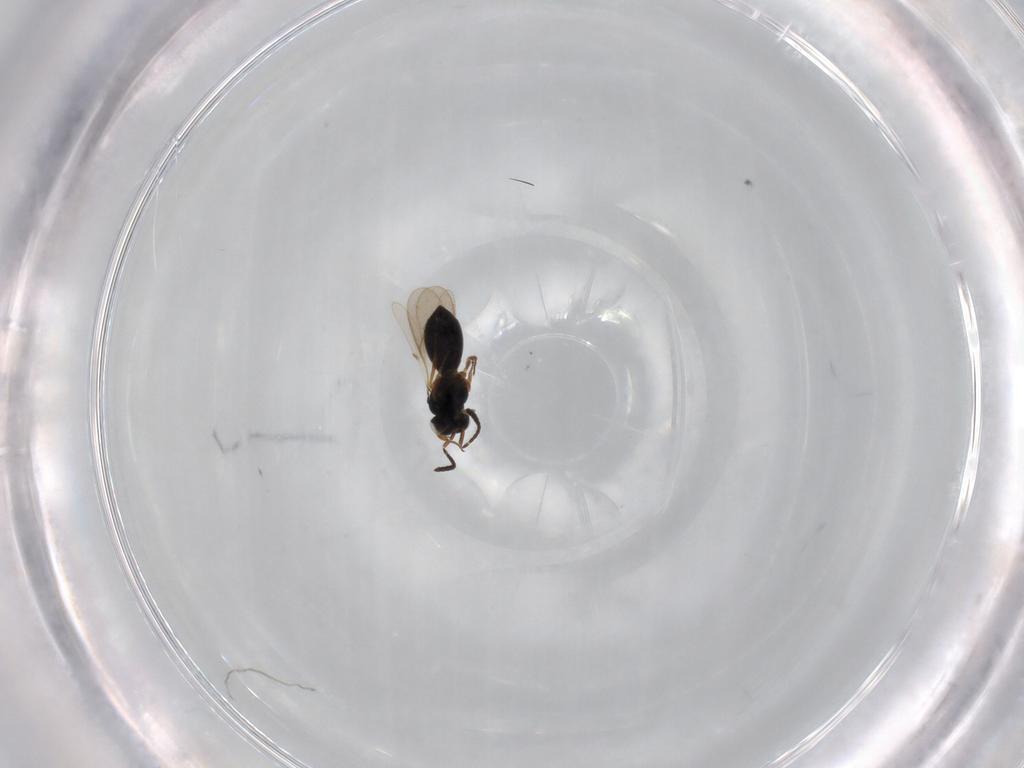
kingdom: Animalia
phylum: Arthropoda
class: Insecta
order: Hymenoptera
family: Scelionidae
